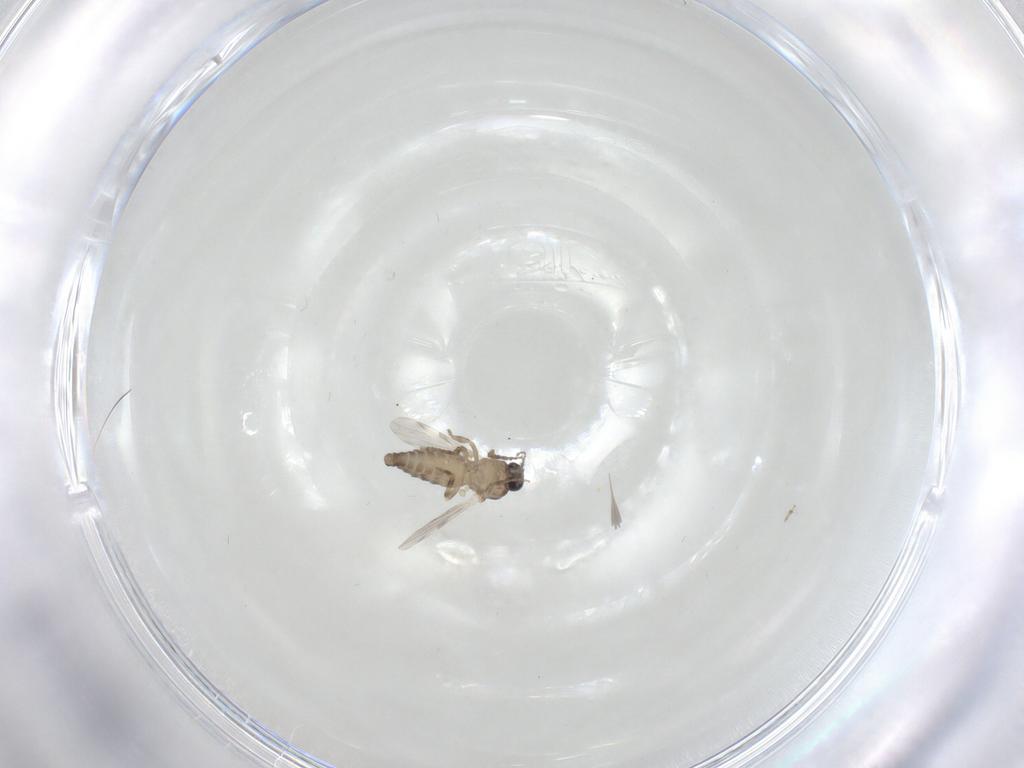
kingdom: Animalia
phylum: Arthropoda
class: Insecta
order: Diptera
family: Ceratopogonidae
